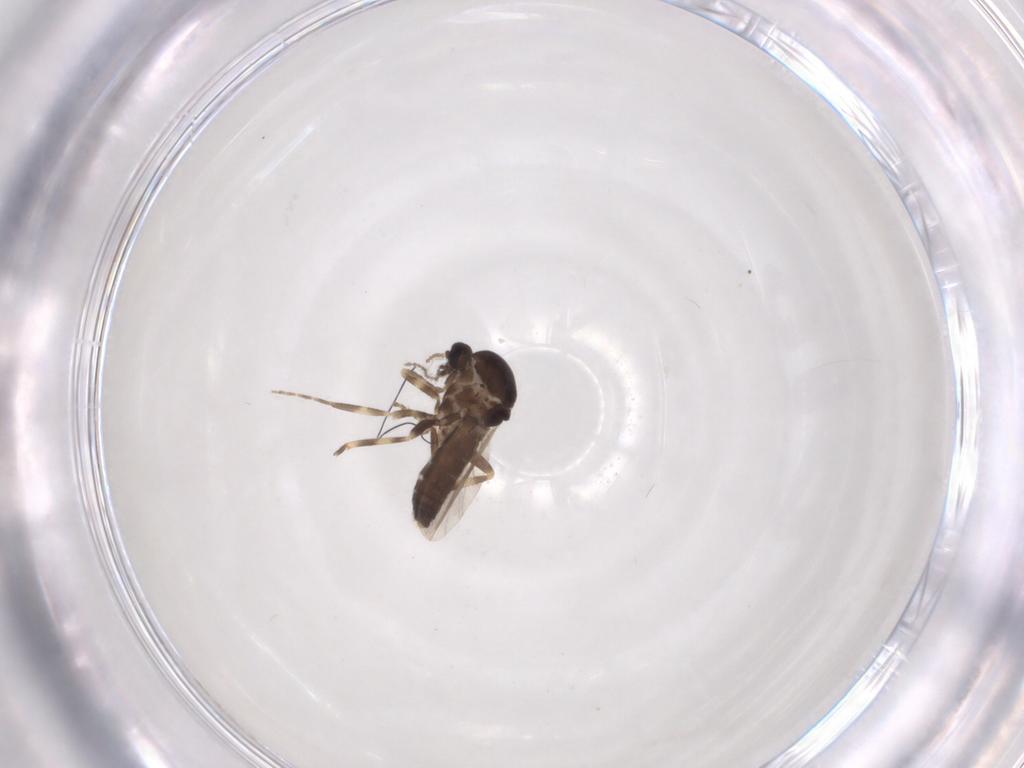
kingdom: Animalia
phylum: Arthropoda
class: Insecta
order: Diptera
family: Ceratopogonidae
